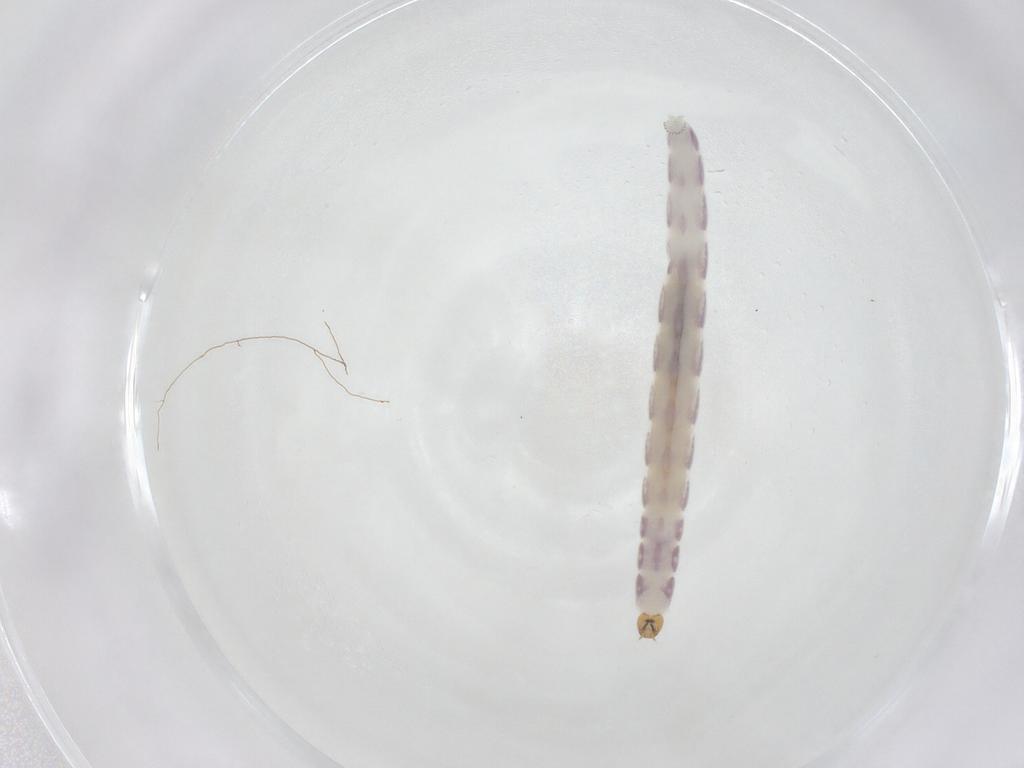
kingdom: Animalia
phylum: Arthropoda
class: Insecta
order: Diptera
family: Chironomidae
